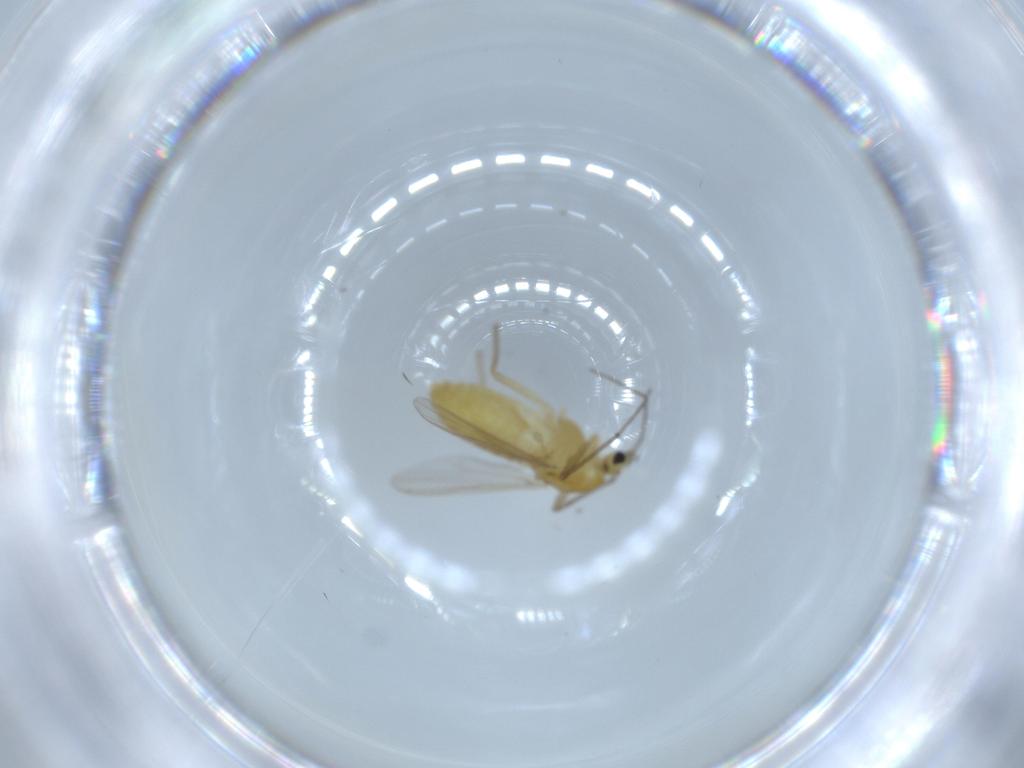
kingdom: Animalia
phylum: Arthropoda
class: Insecta
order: Diptera
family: Chironomidae
